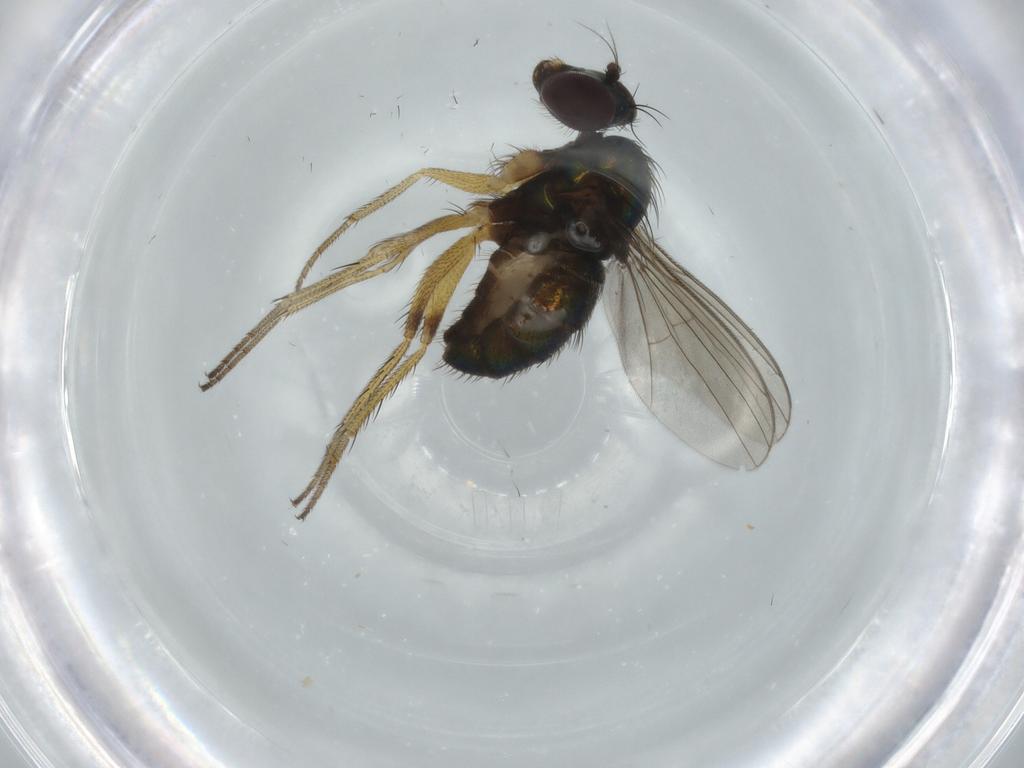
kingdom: Animalia
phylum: Arthropoda
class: Insecta
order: Diptera
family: Cecidomyiidae
